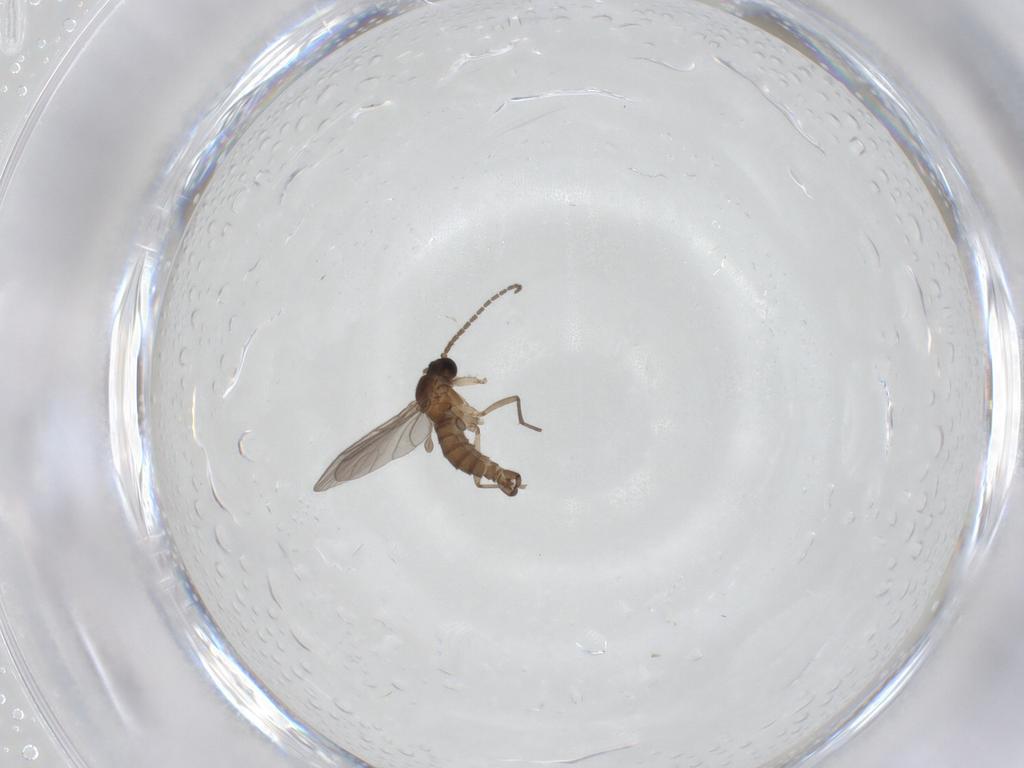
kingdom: Animalia
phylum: Arthropoda
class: Insecta
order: Diptera
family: Sciaridae
